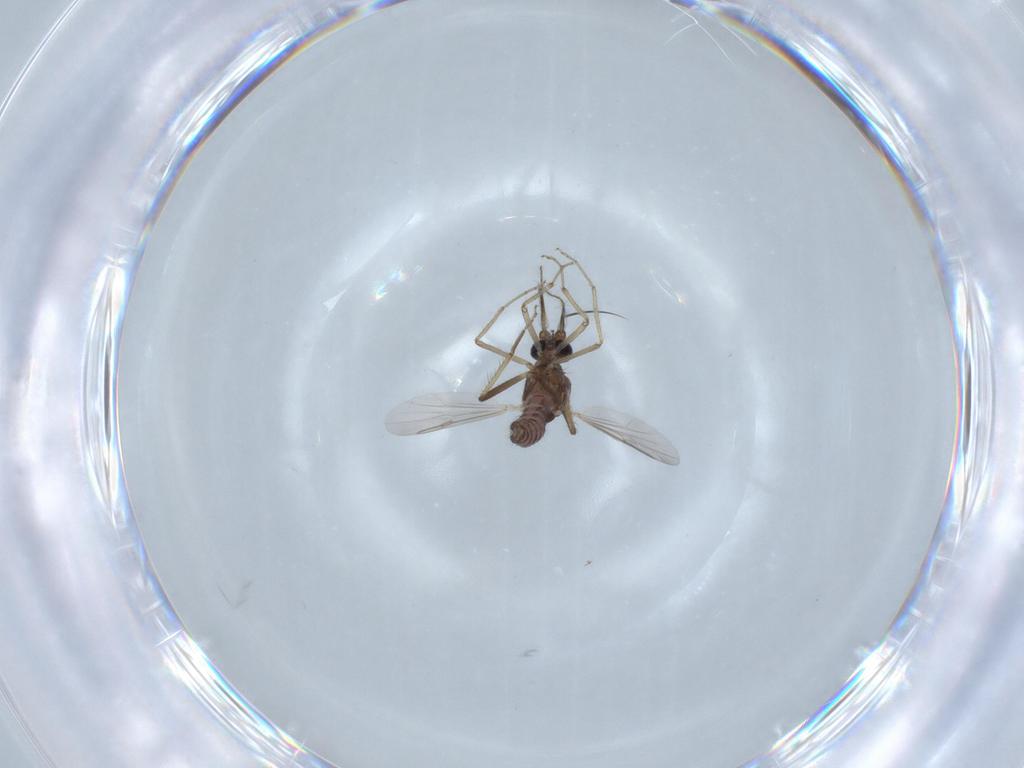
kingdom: Animalia
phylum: Arthropoda
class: Insecta
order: Diptera
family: Ceratopogonidae
